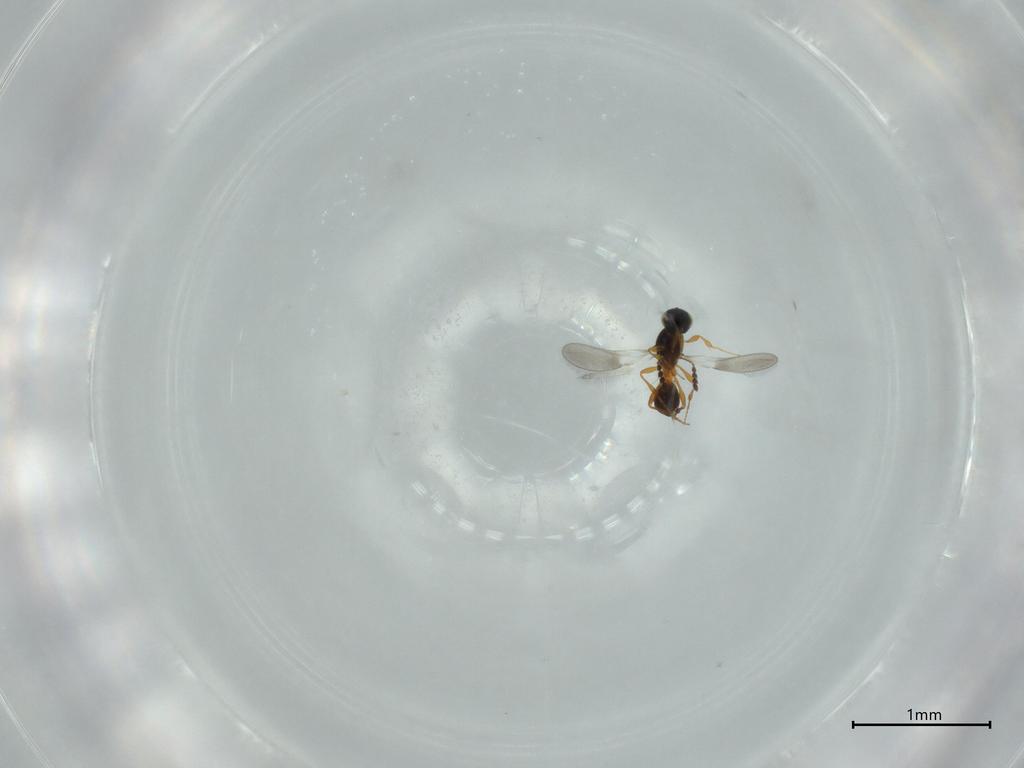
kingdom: Animalia
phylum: Arthropoda
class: Insecta
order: Hymenoptera
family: Platygastridae
